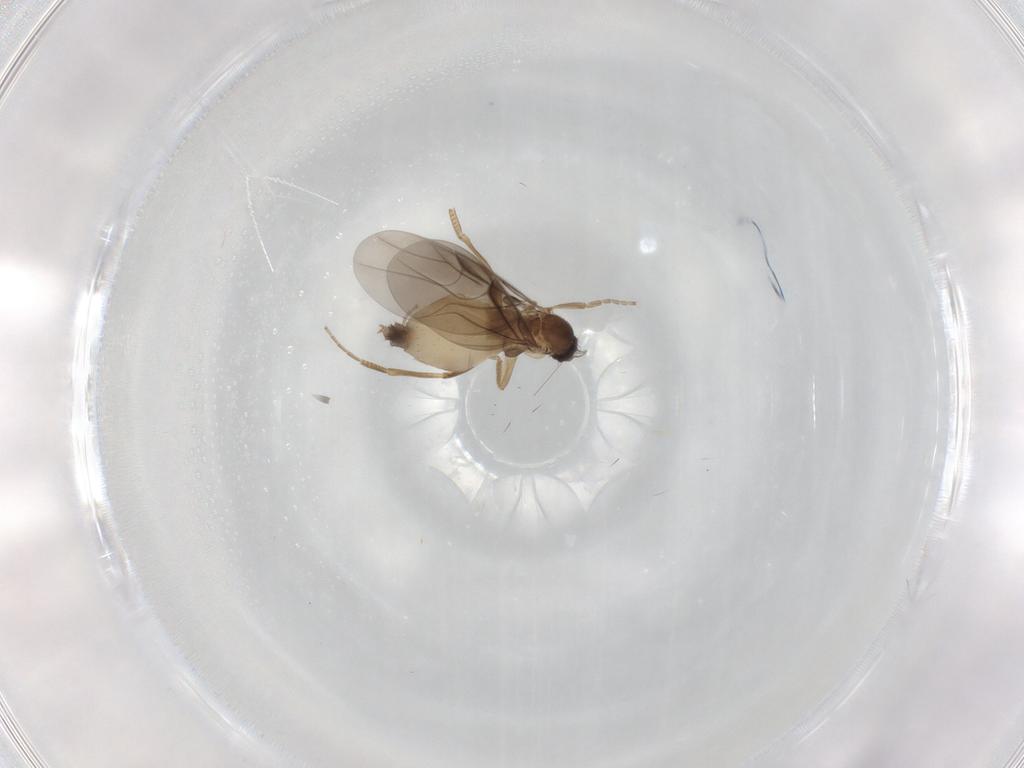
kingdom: Animalia
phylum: Arthropoda
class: Insecta
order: Diptera
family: Phoridae
